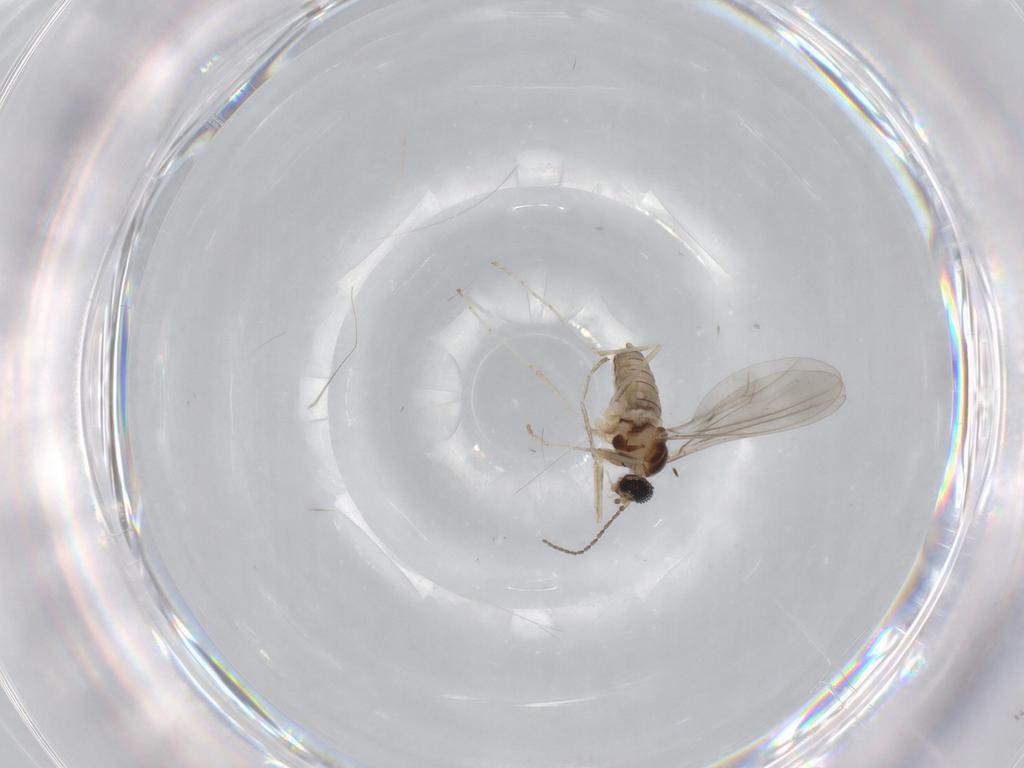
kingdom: Animalia
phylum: Arthropoda
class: Insecta
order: Diptera
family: Cecidomyiidae
